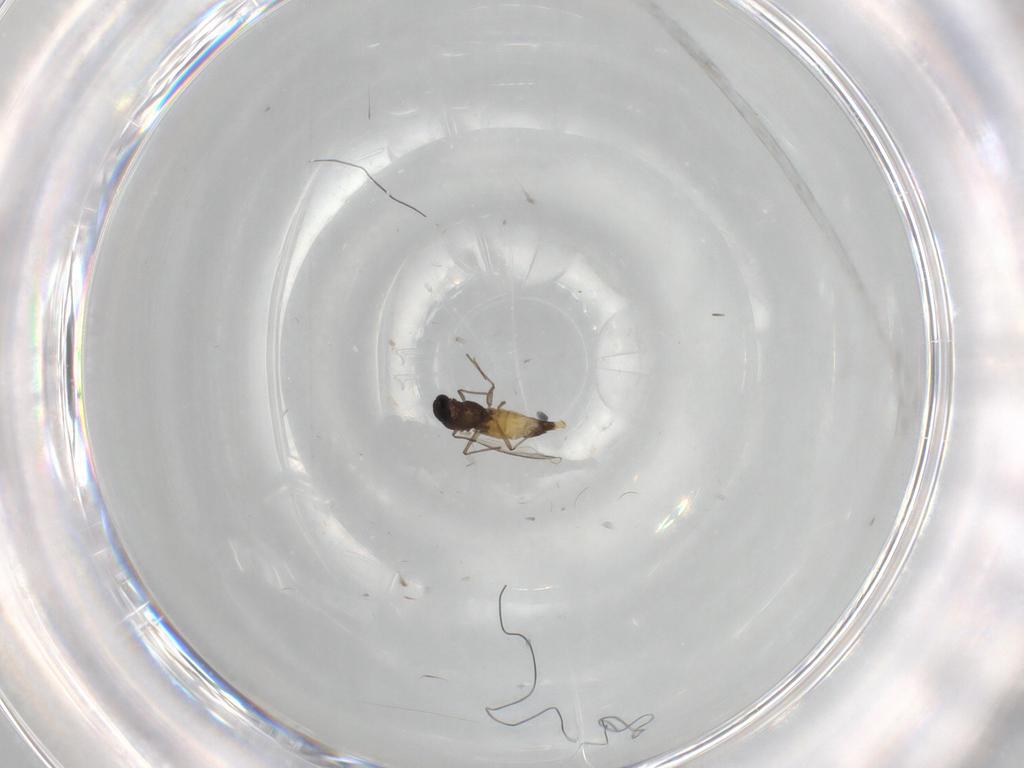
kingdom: Animalia
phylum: Arthropoda
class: Insecta
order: Diptera
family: Chironomidae
